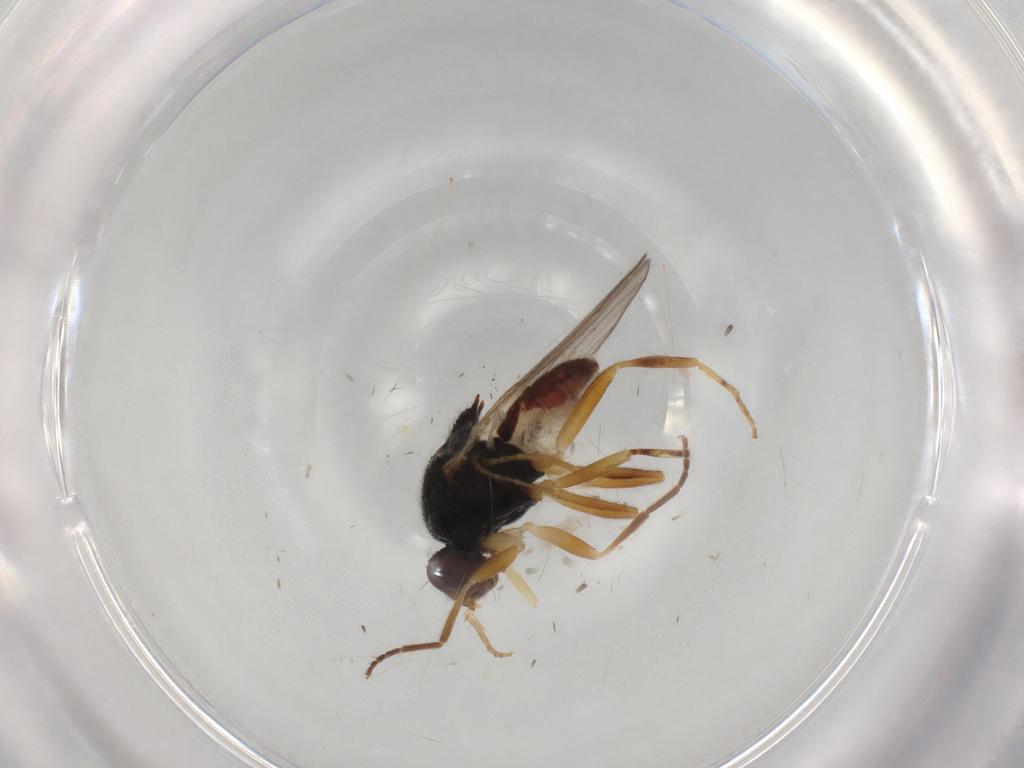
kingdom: Animalia
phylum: Arthropoda
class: Insecta
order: Diptera
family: Chloropidae
